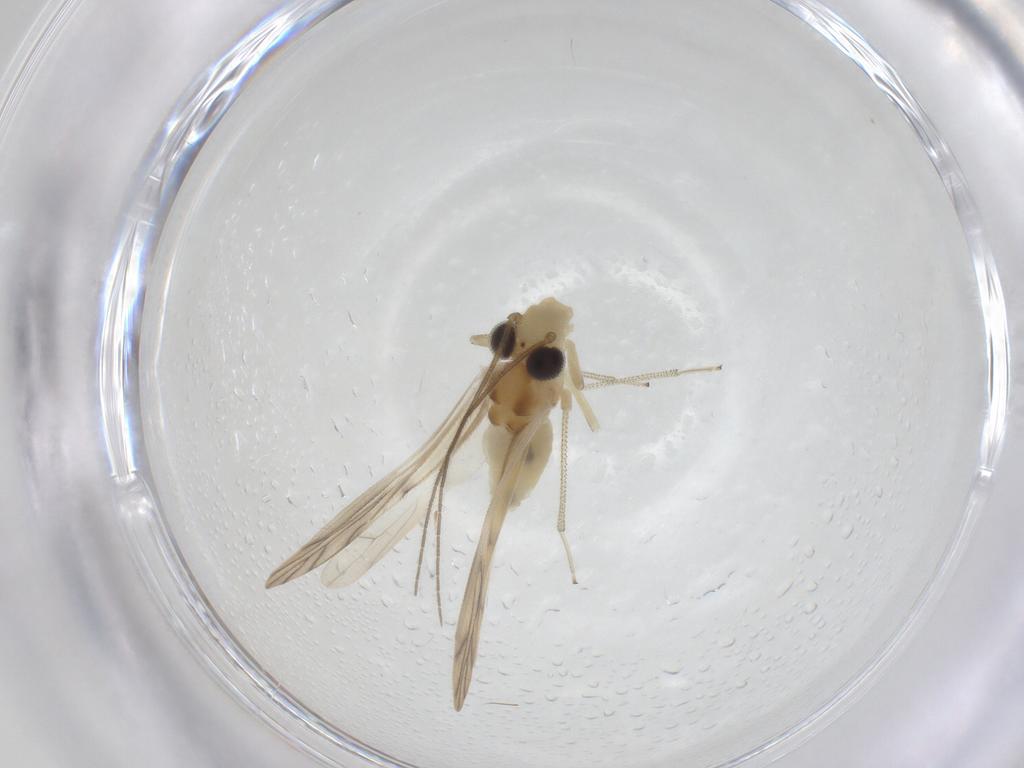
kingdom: Animalia
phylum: Arthropoda
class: Insecta
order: Psocodea
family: Caeciliusidae
